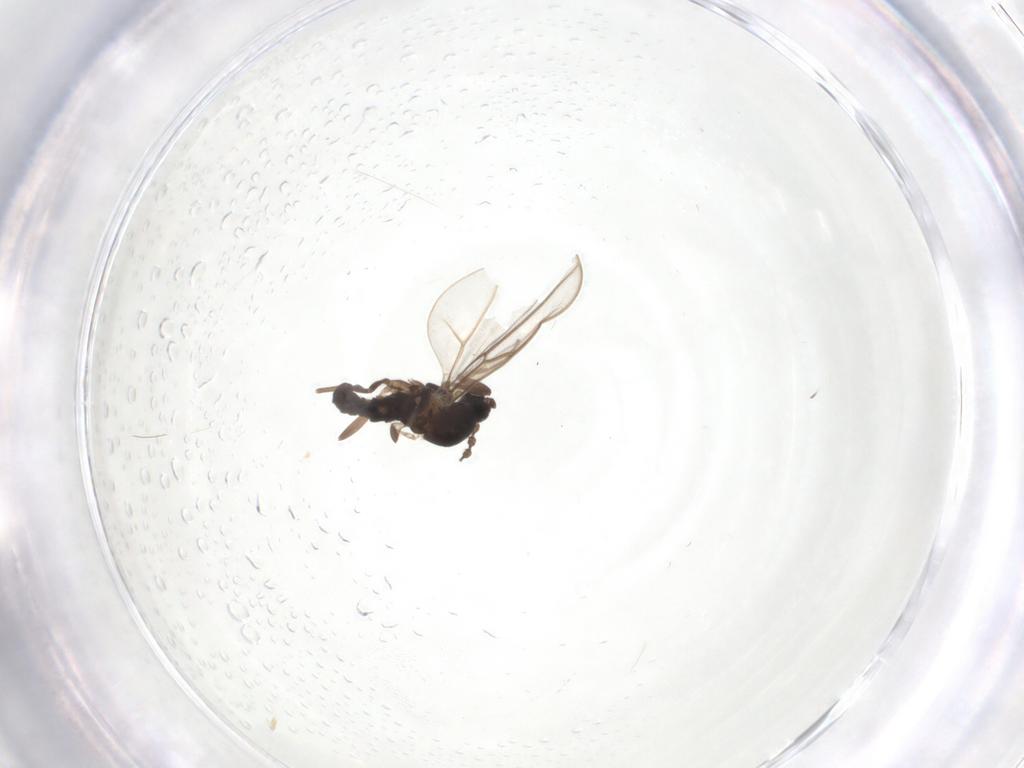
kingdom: Animalia
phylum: Arthropoda
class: Insecta
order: Diptera
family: Cecidomyiidae
